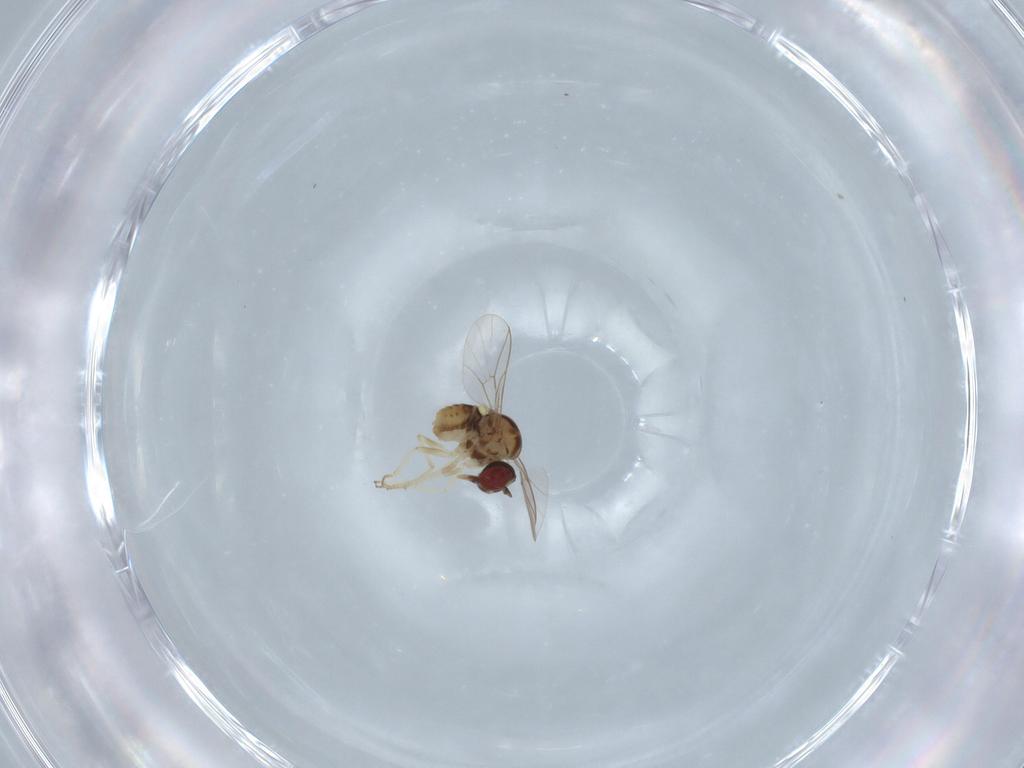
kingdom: Animalia
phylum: Arthropoda
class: Insecta
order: Diptera
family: Bombyliidae
